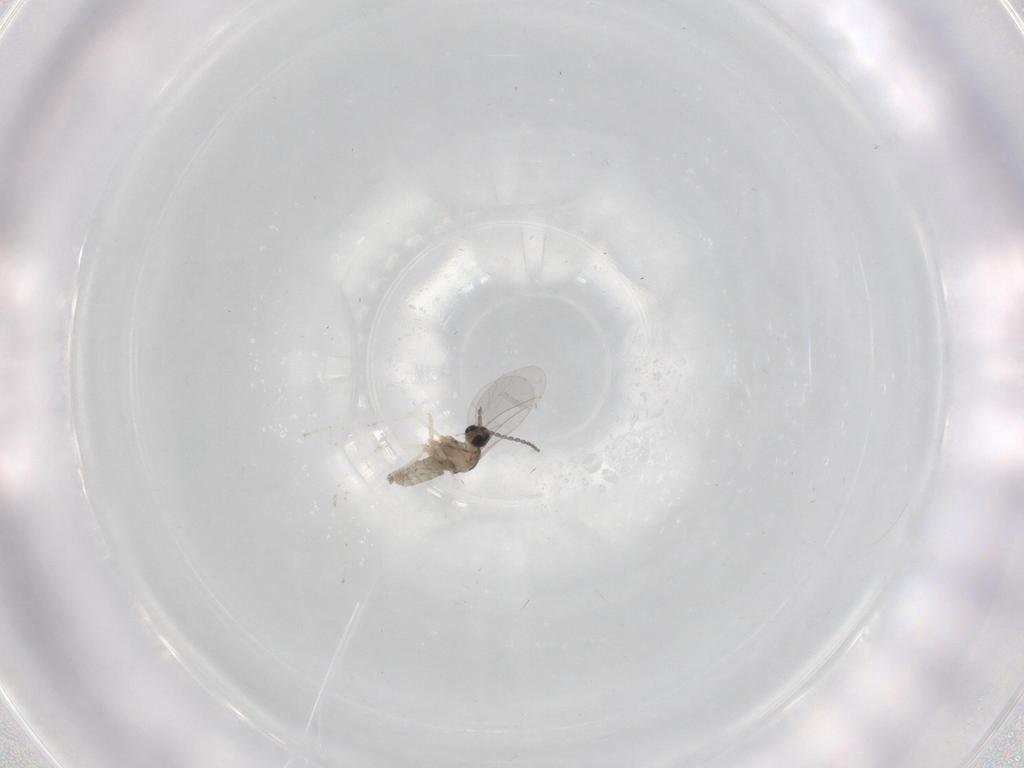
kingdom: Animalia
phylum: Arthropoda
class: Insecta
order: Diptera
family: Cecidomyiidae
